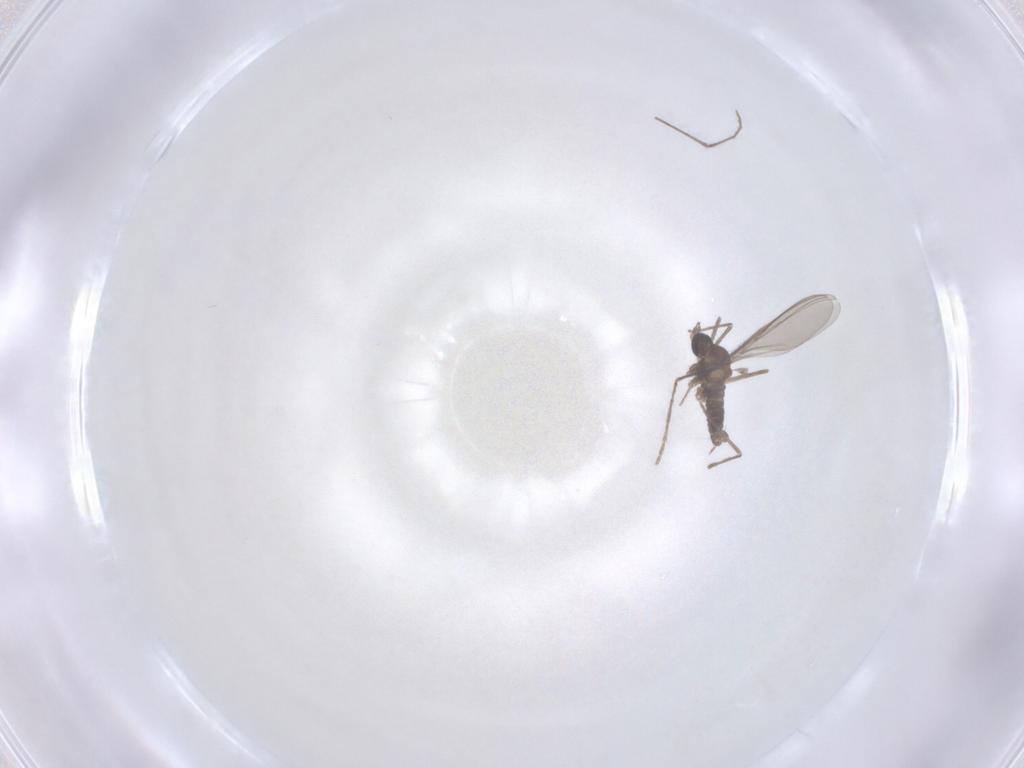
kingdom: Animalia
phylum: Arthropoda
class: Insecta
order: Diptera
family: Cecidomyiidae
